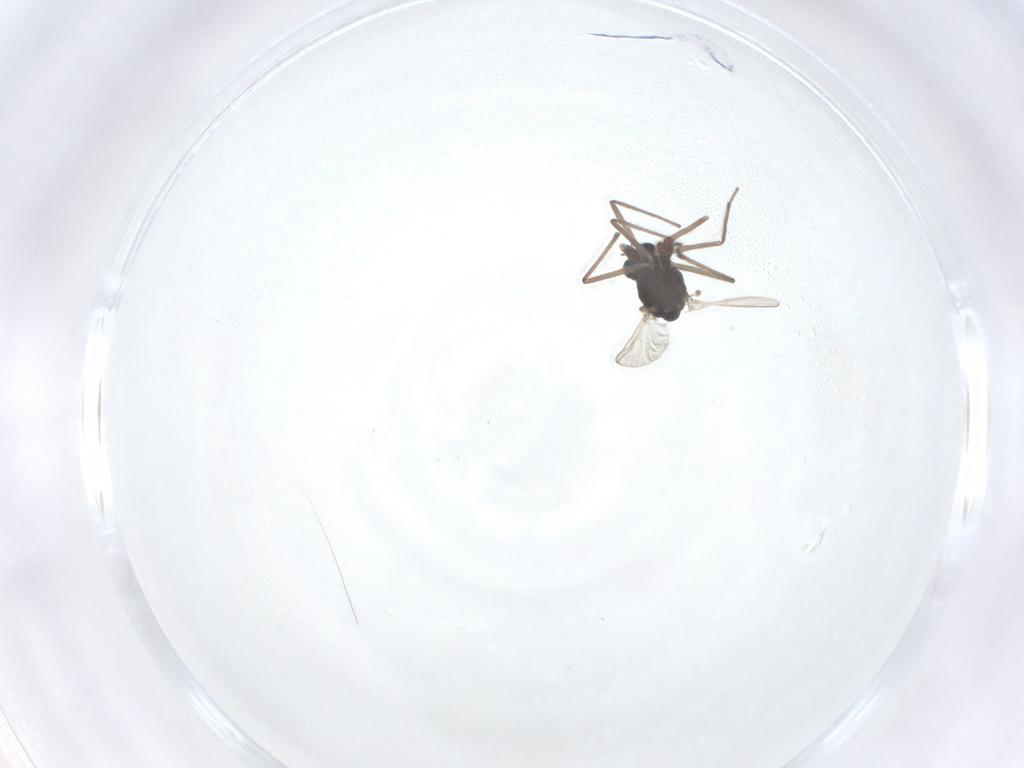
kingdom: Animalia
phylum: Arthropoda
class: Insecta
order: Diptera
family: Chironomidae
